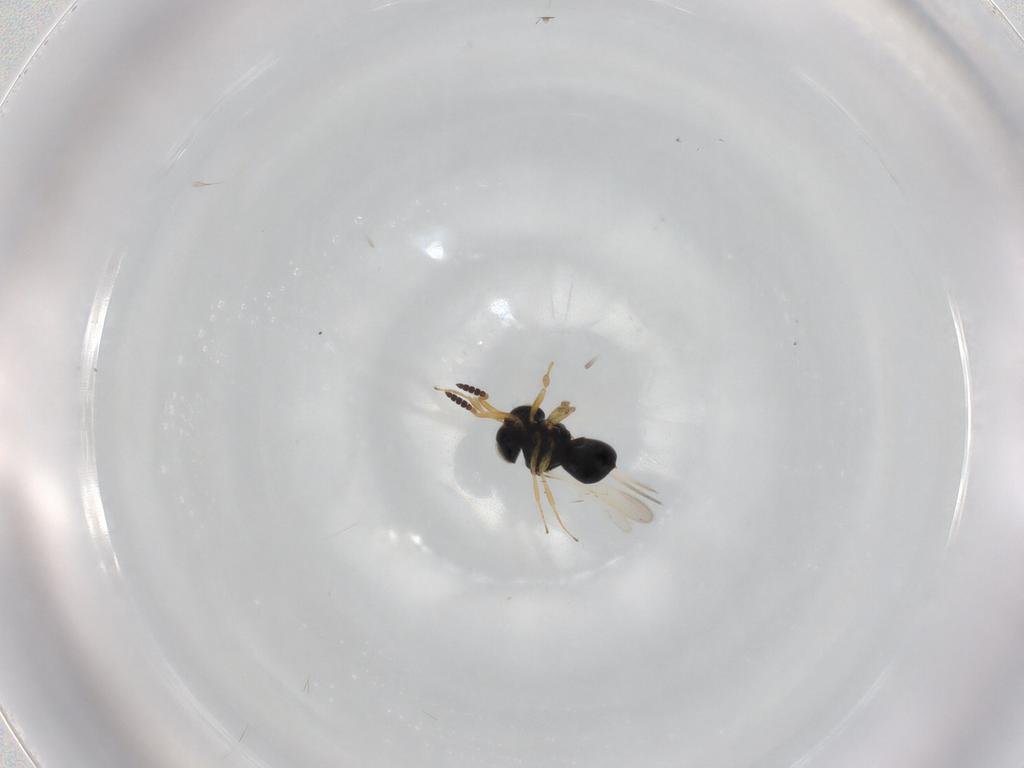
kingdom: Animalia
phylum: Arthropoda
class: Insecta
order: Hymenoptera
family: Scelionidae
